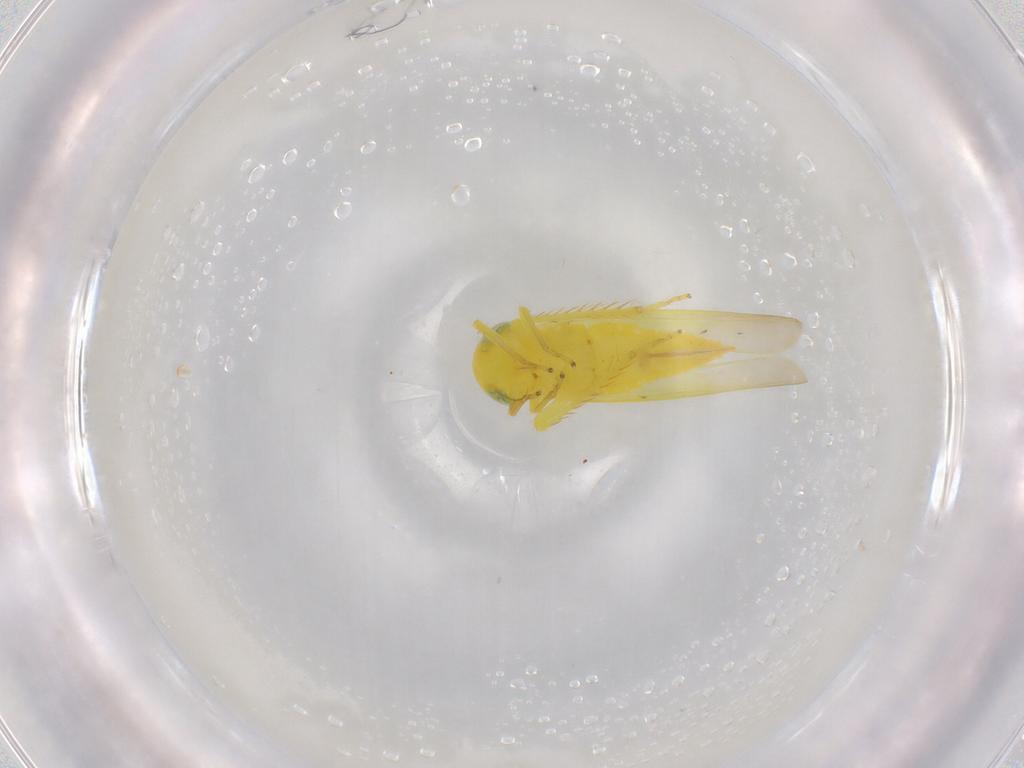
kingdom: Animalia
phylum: Arthropoda
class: Insecta
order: Hemiptera
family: Cicadellidae
